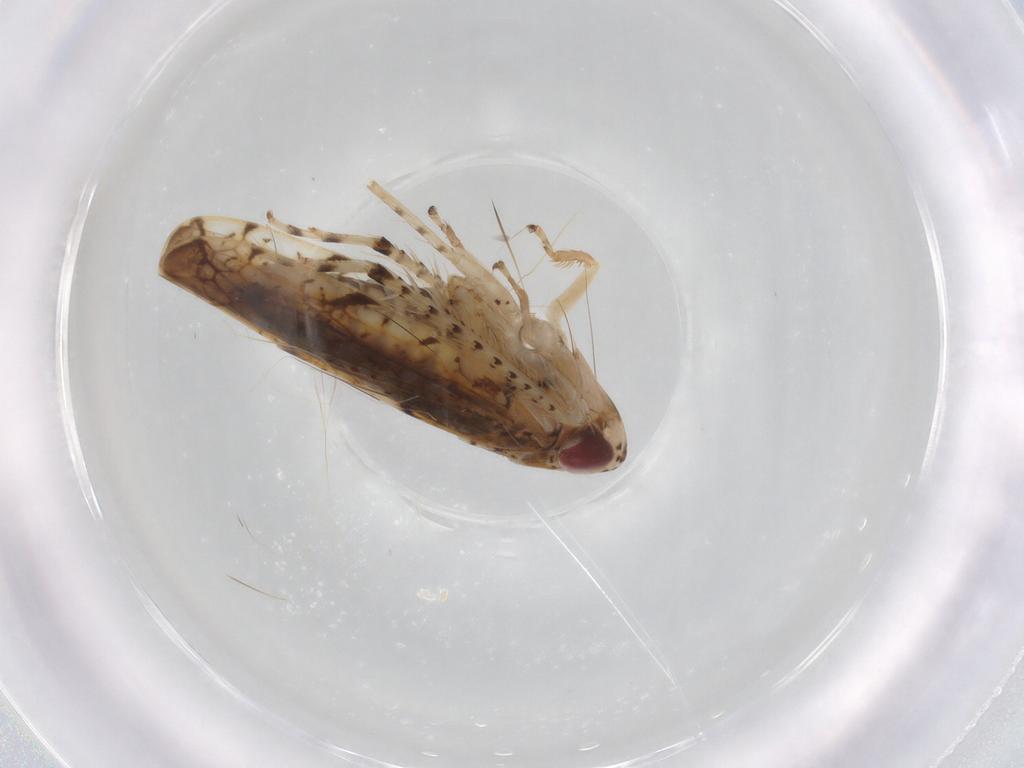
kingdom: Animalia
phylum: Arthropoda
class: Insecta
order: Hemiptera
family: Cicadellidae
